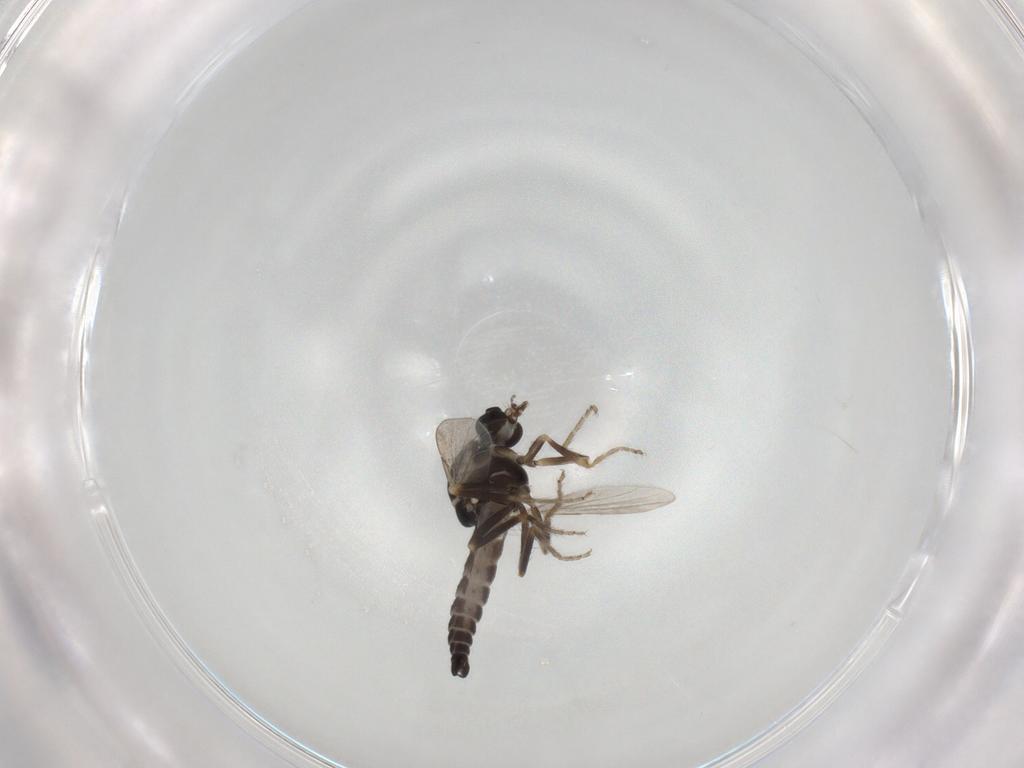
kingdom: Animalia
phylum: Arthropoda
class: Insecta
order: Diptera
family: Ceratopogonidae
